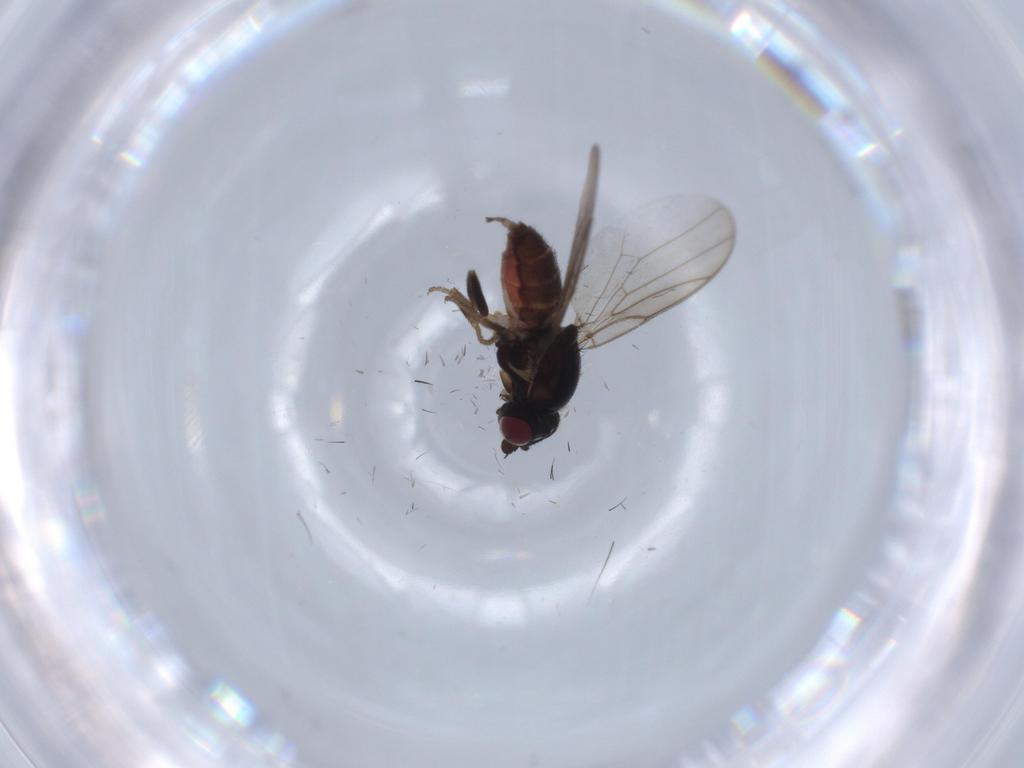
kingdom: Animalia
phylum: Arthropoda
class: Insecta
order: Diptera
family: Chloropidae
